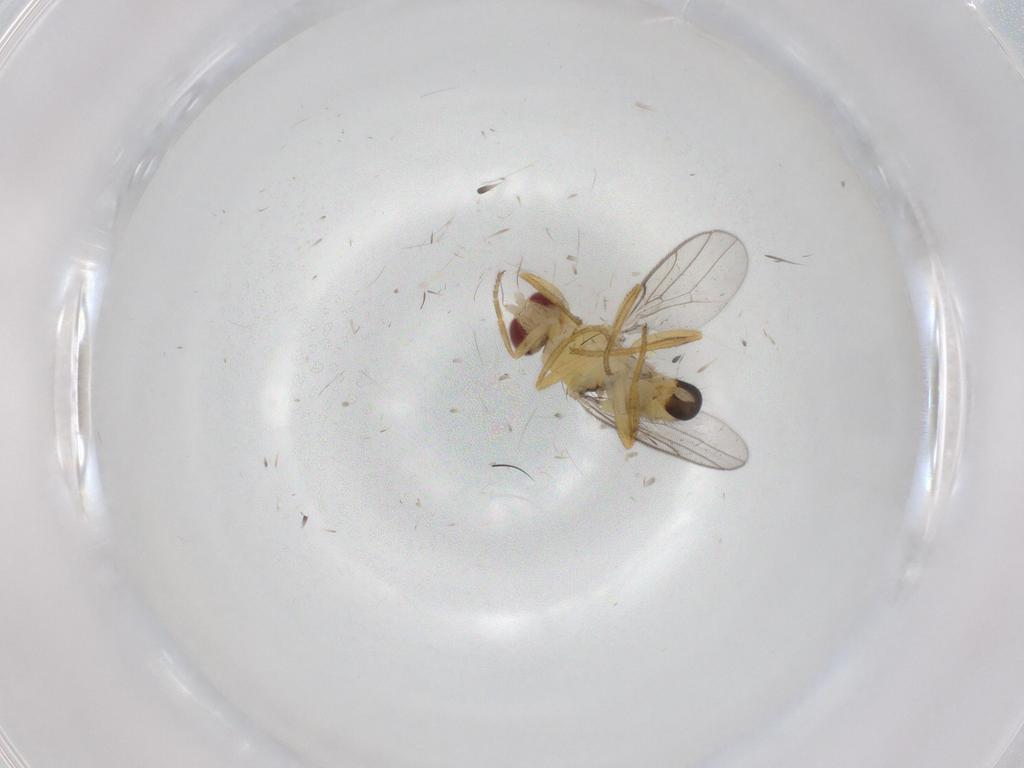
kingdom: Animalia
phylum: Arthropoda
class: Insecta
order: Diptera
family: Chloropidae
